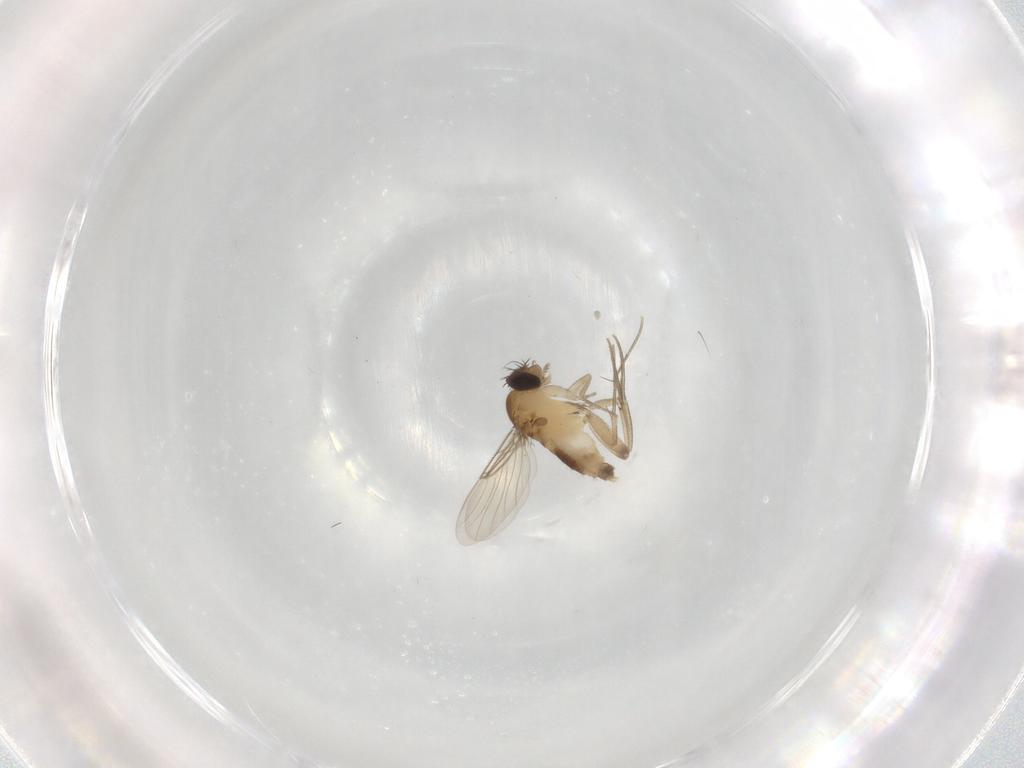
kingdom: Animalia
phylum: Arthropoda
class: Insecta
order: Diptera
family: Phoridae
